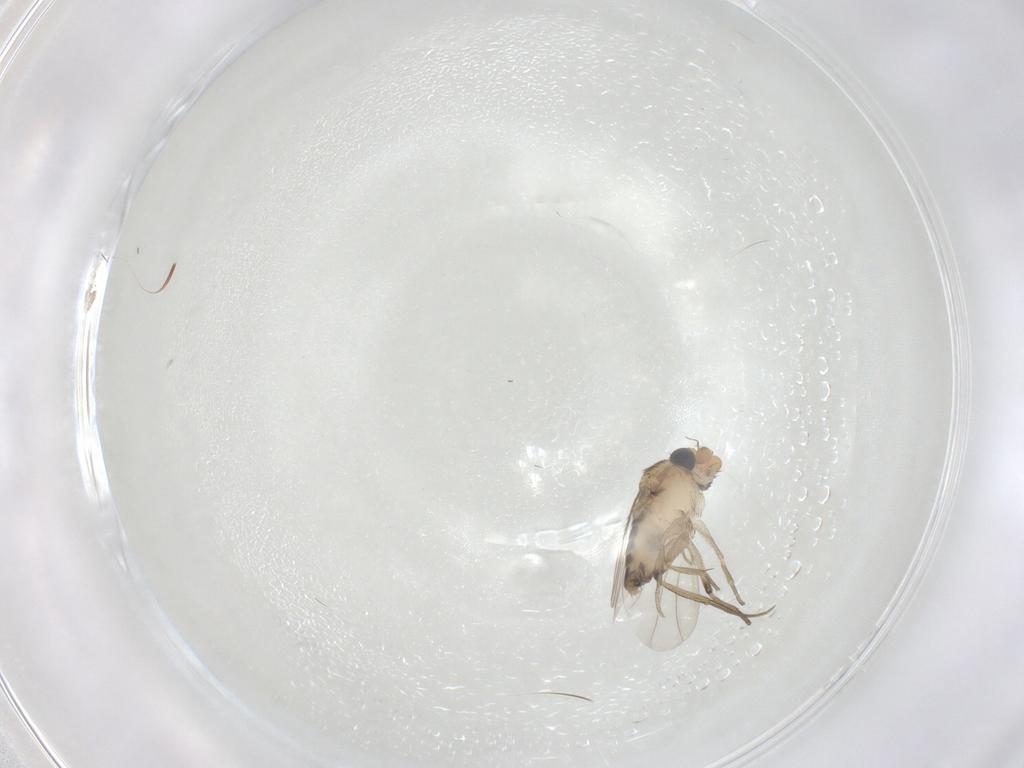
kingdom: Animalia
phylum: Arthropoda
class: Insecta
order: Diptera
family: Phoridae
